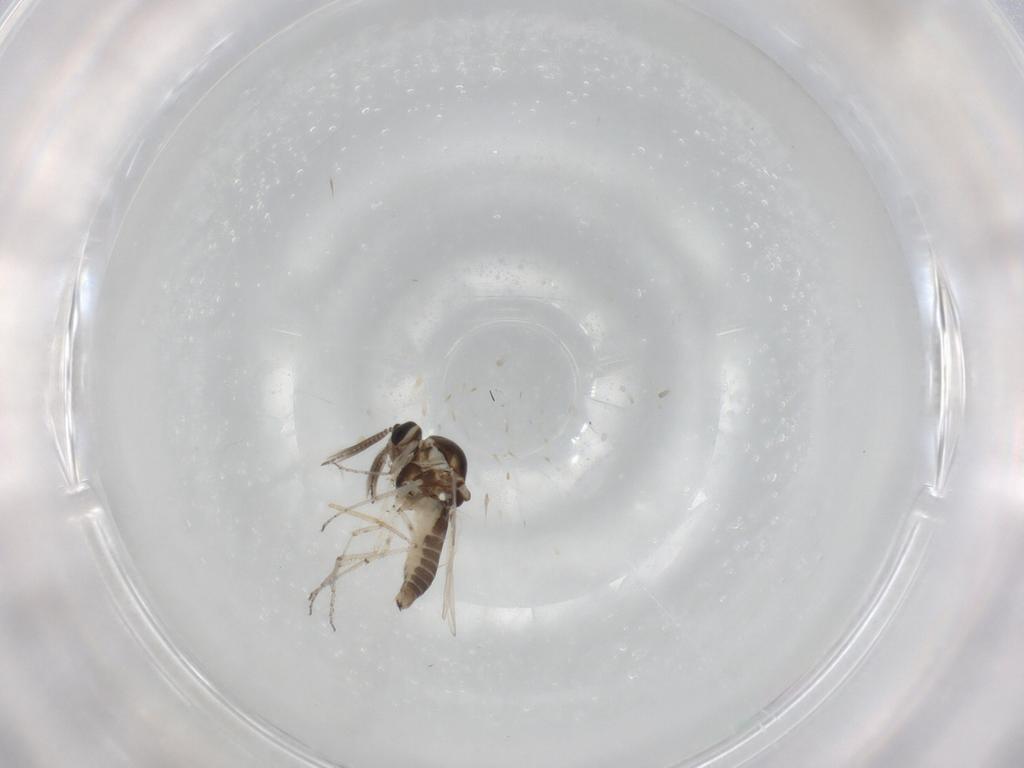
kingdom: Animalia
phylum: Arthropoda
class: Insecta
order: Diptera
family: Ceratopogonidae
